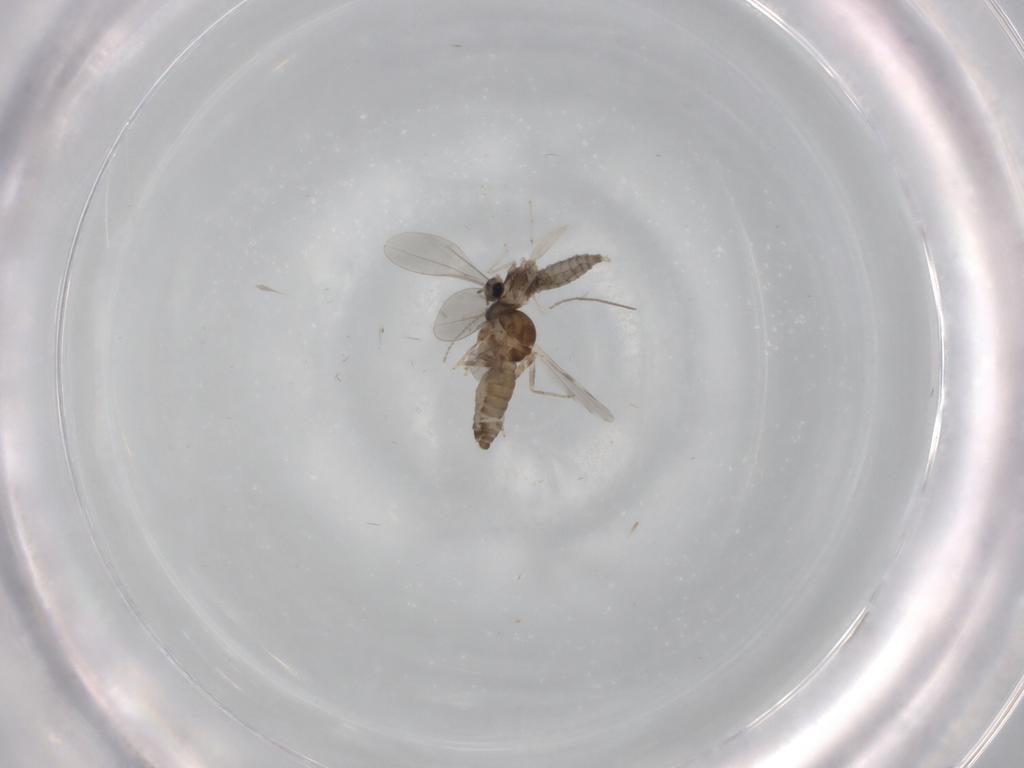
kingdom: Animalia
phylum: Arthropoda
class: Insecta
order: Diptera
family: Ceratopogonidae
